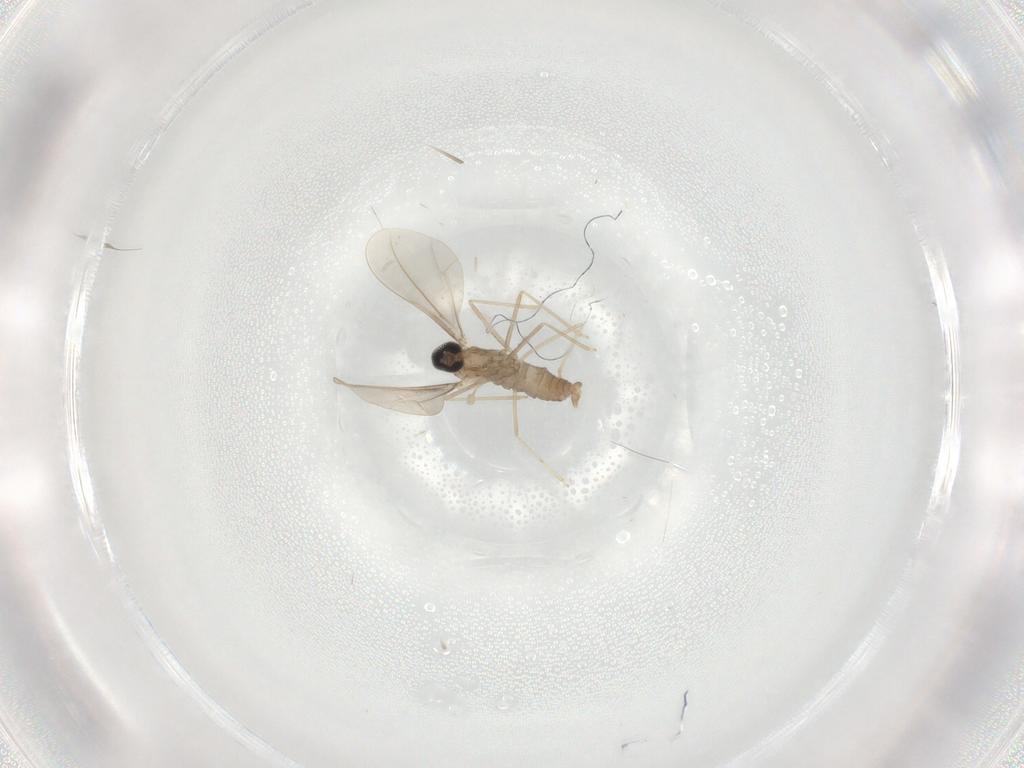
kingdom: Animalia
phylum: Arthropoda
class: Insecta
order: Diptera
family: Cecidomyiidae
